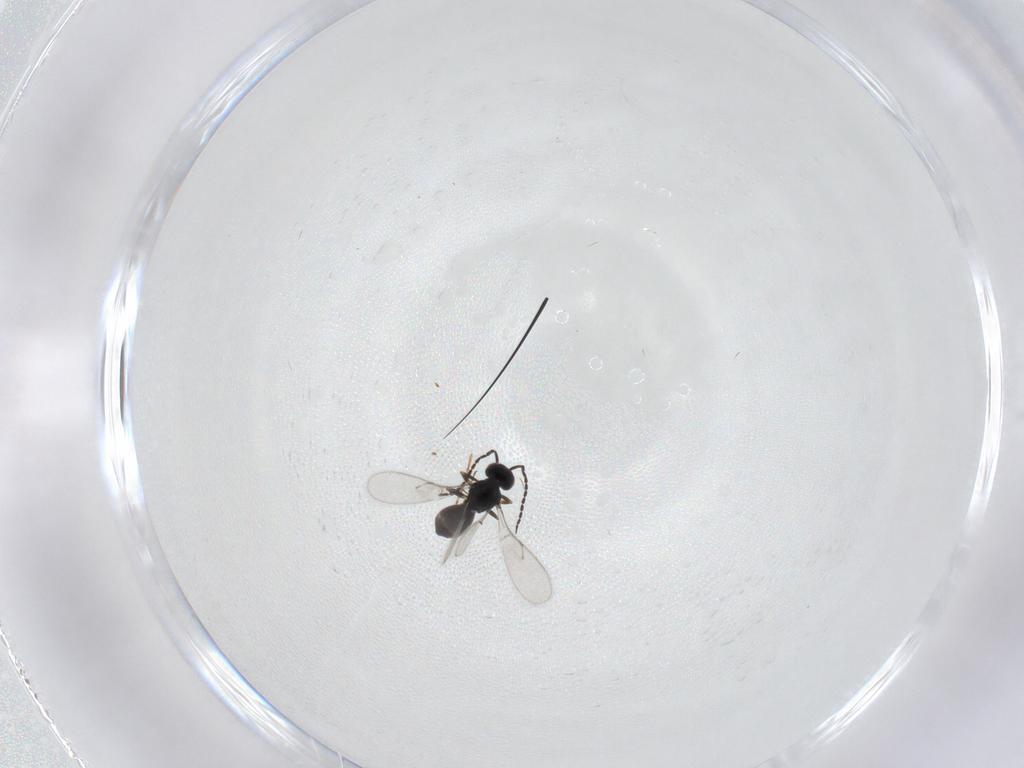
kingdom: Animalia
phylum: Arthropoda
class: Insecta
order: Hymenoptera
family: Scelionidae
